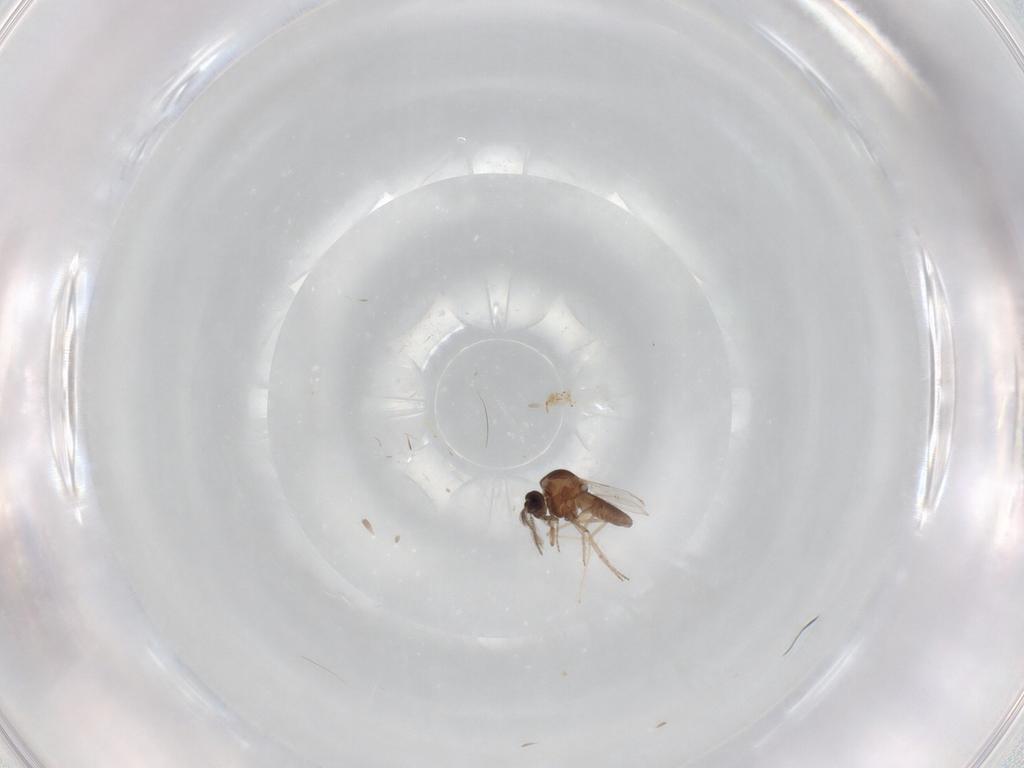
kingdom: Animalia
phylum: Arthropoda
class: Insecta
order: Diptera
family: Ceratopogonidae
